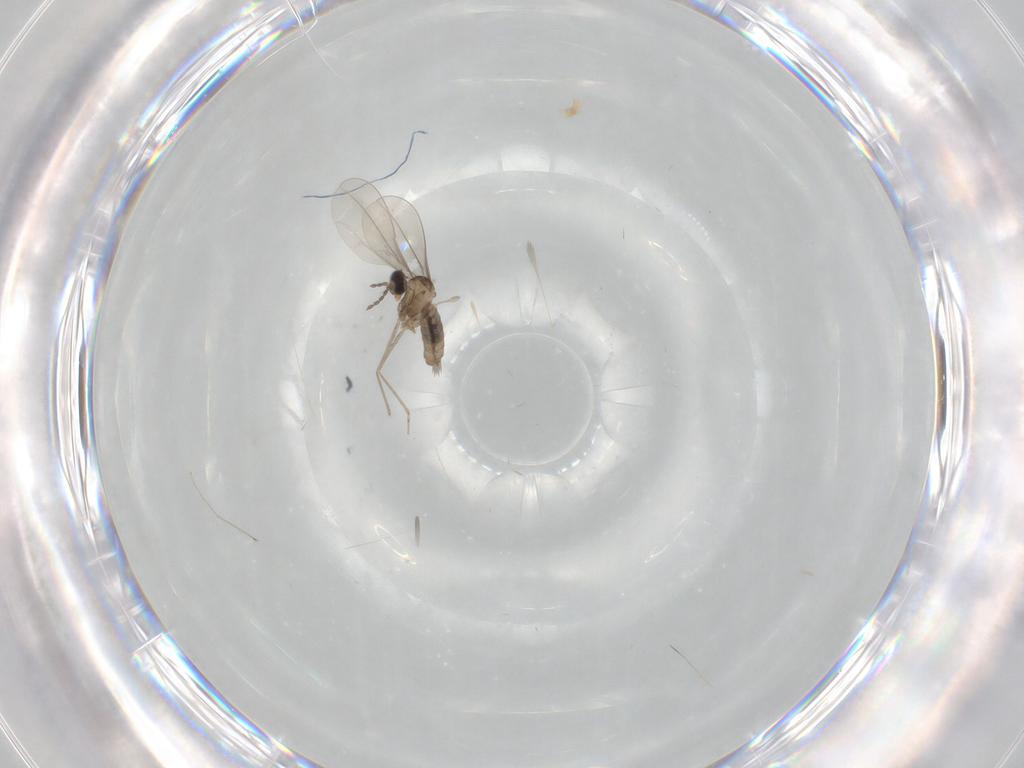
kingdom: Animalia
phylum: Arthropoda
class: Insecta
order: Diptera
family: Cecidomyiidae
